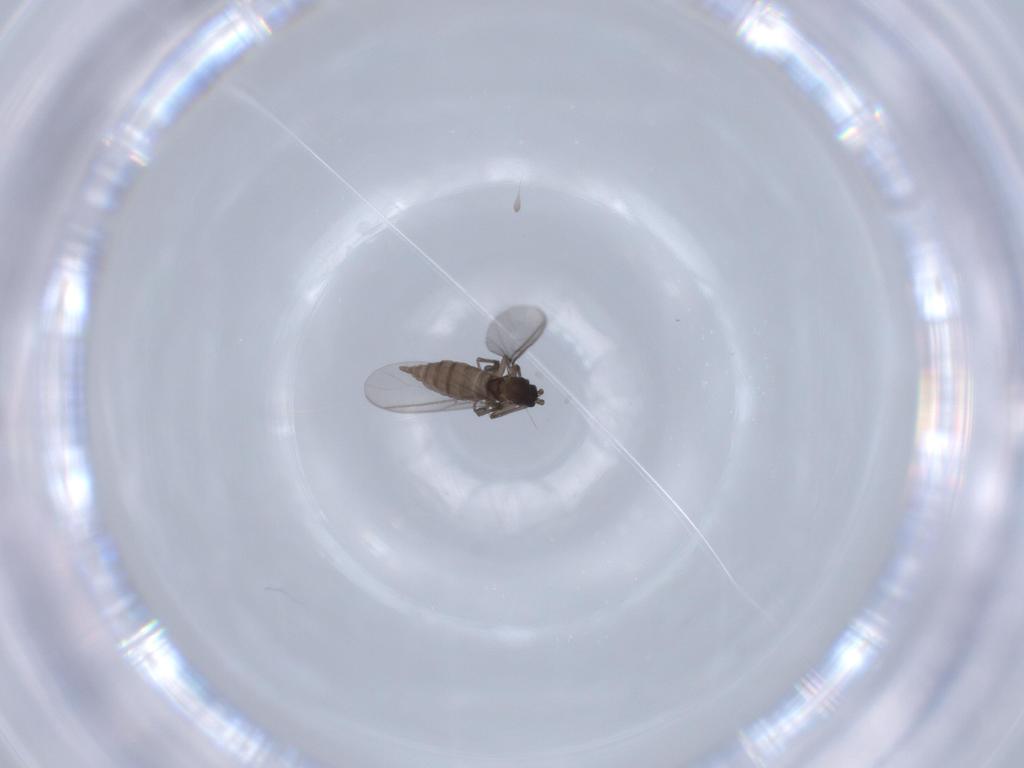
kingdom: Animalia
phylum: Arthropoda
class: Insecta
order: Diptera
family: Sciaridae
